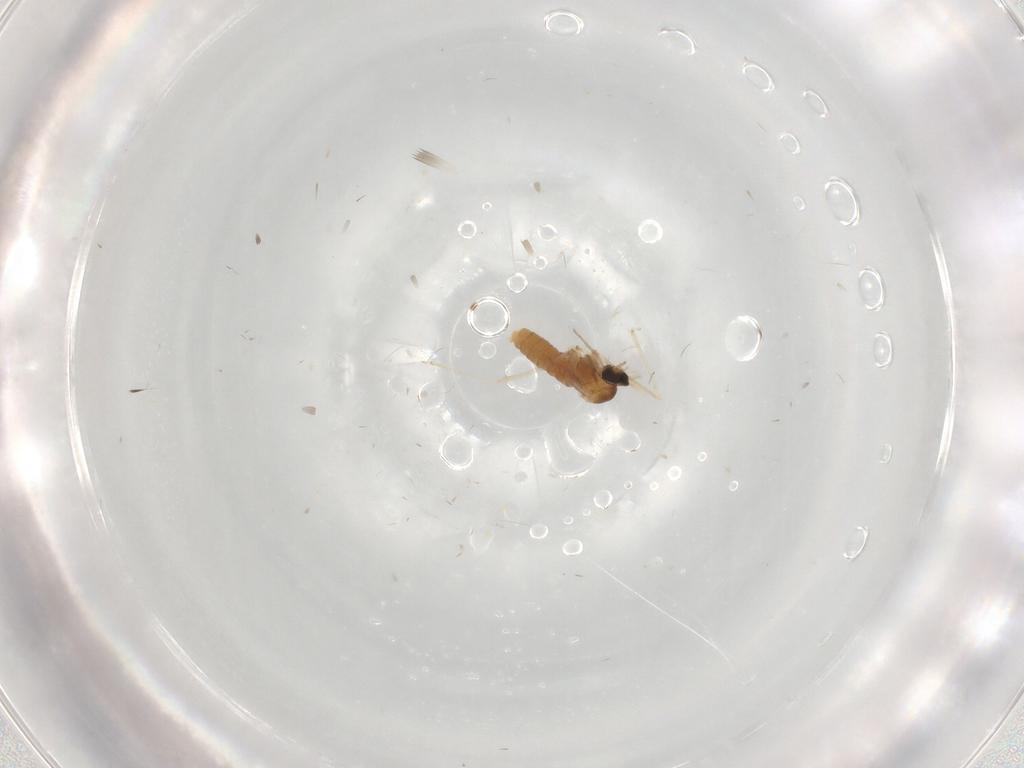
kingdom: Animalia
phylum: Arthropoda
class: Insecta
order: Diptera
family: Cecidomyiidae
